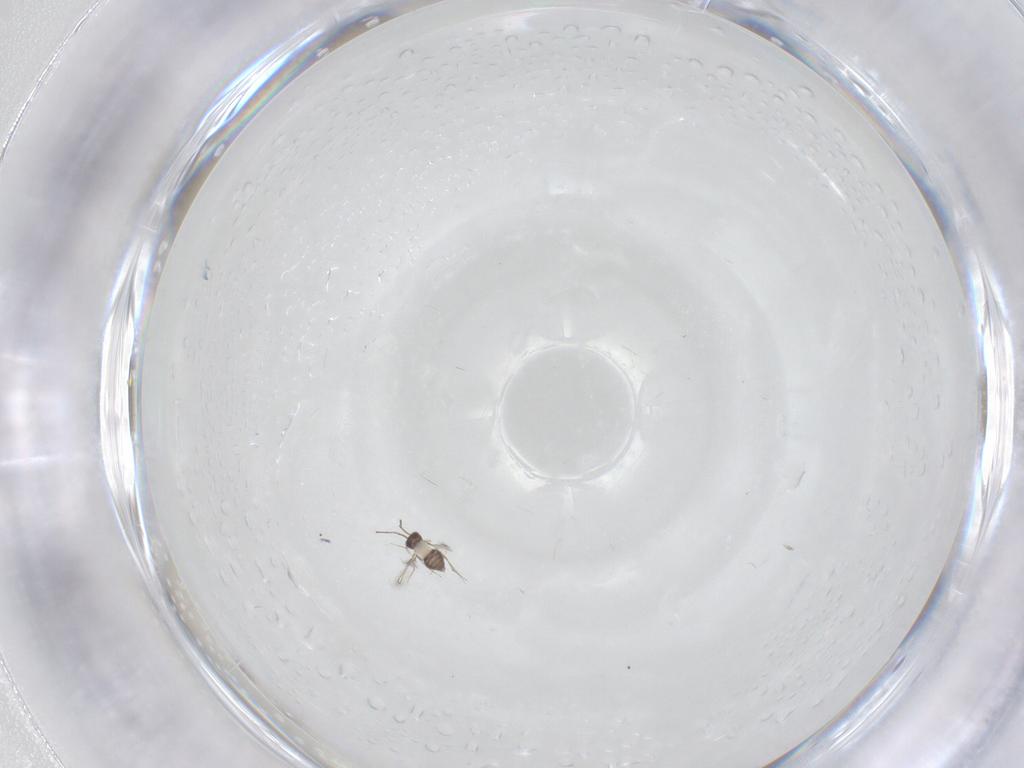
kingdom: Animalia
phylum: Arthropoda
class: Insecta
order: Hymenoptera
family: Mymaridae
